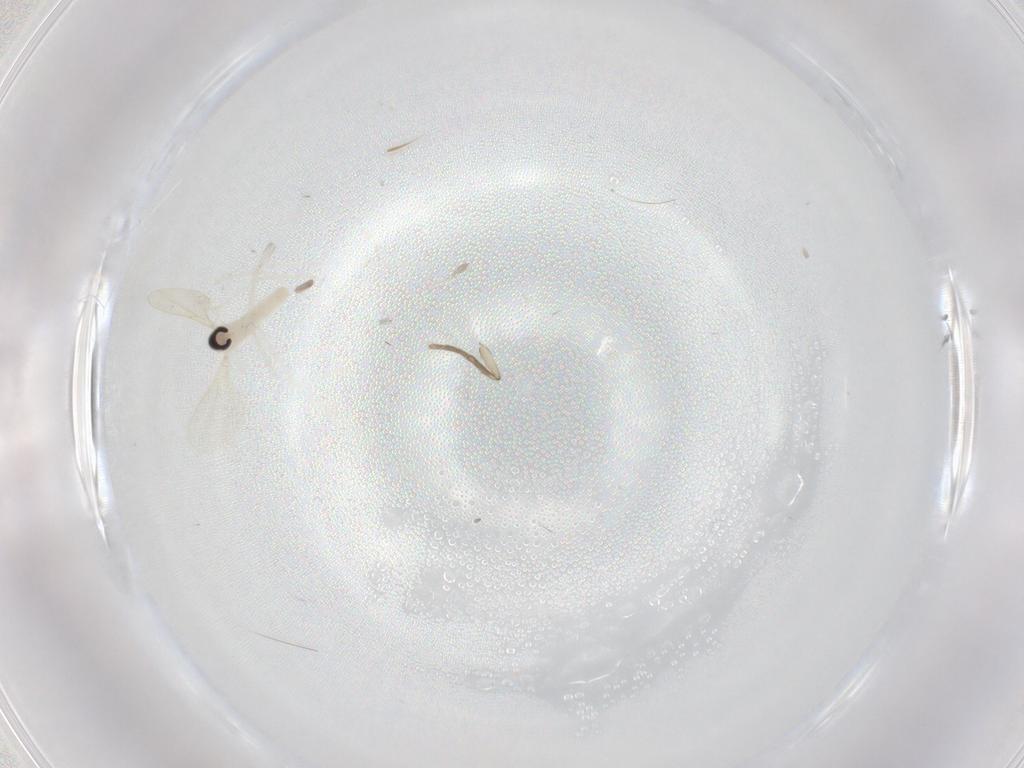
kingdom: Animalia
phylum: Arthropoda
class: Insecta
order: Diptera
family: Cecidomyiidae
